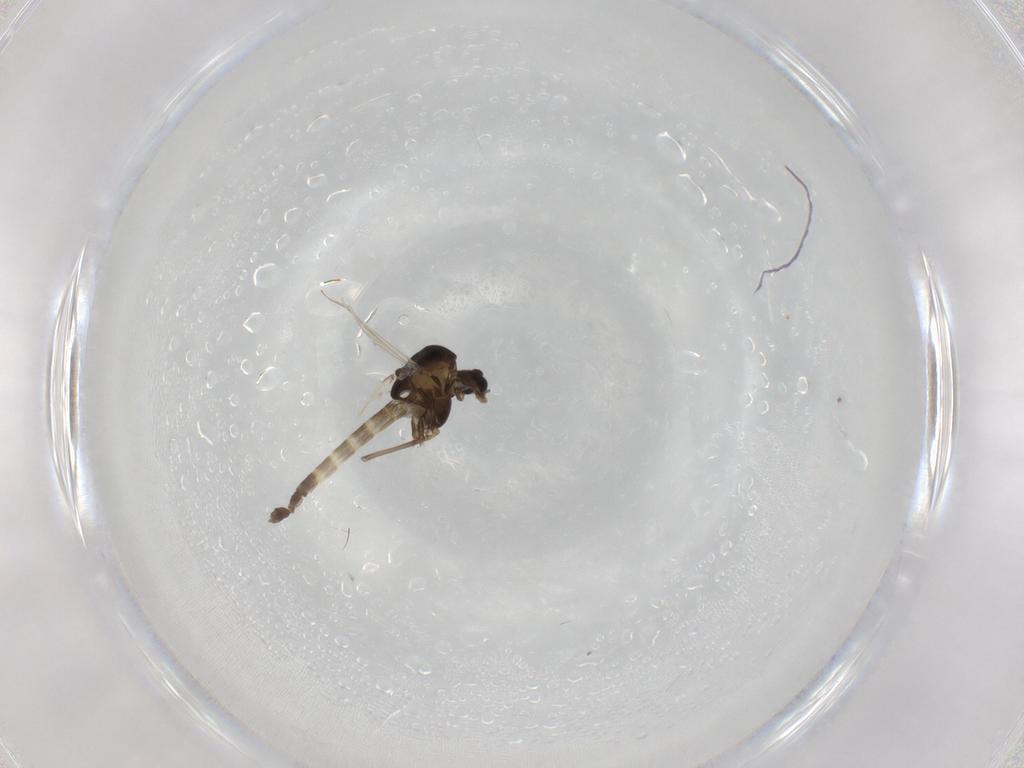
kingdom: Animalia
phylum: Arthropoda
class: Insecta
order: Diptera
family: Chironomidae
